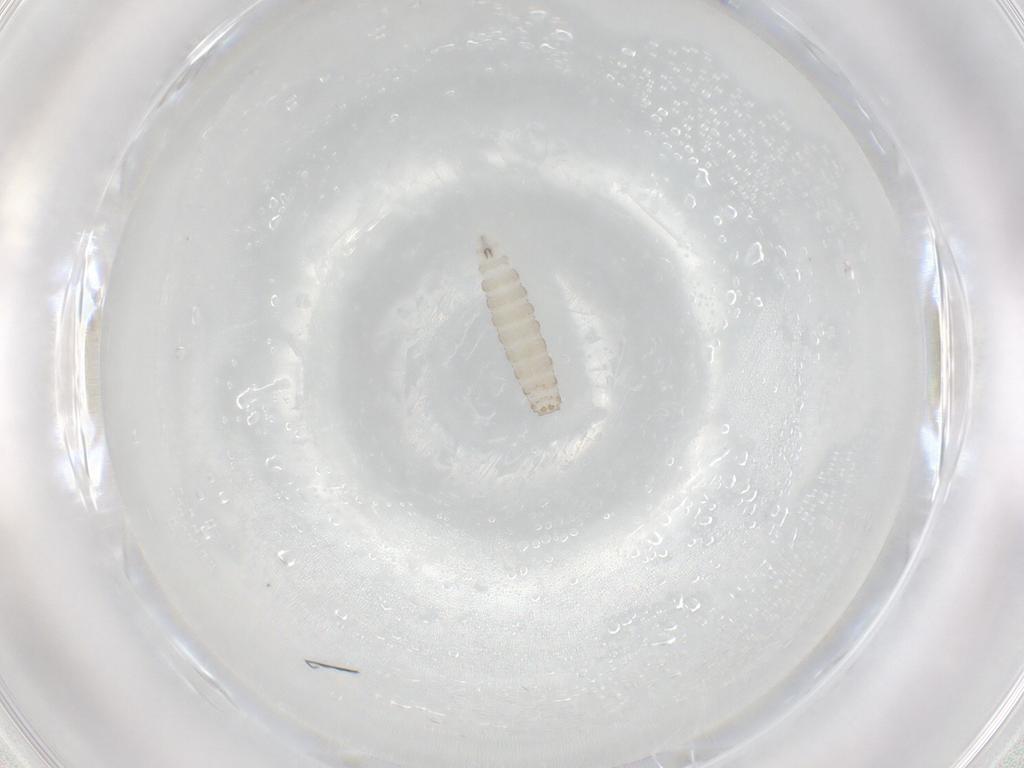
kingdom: Animalia
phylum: Arthropoda
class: Insecta
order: Diptera
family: Scathophagidae
